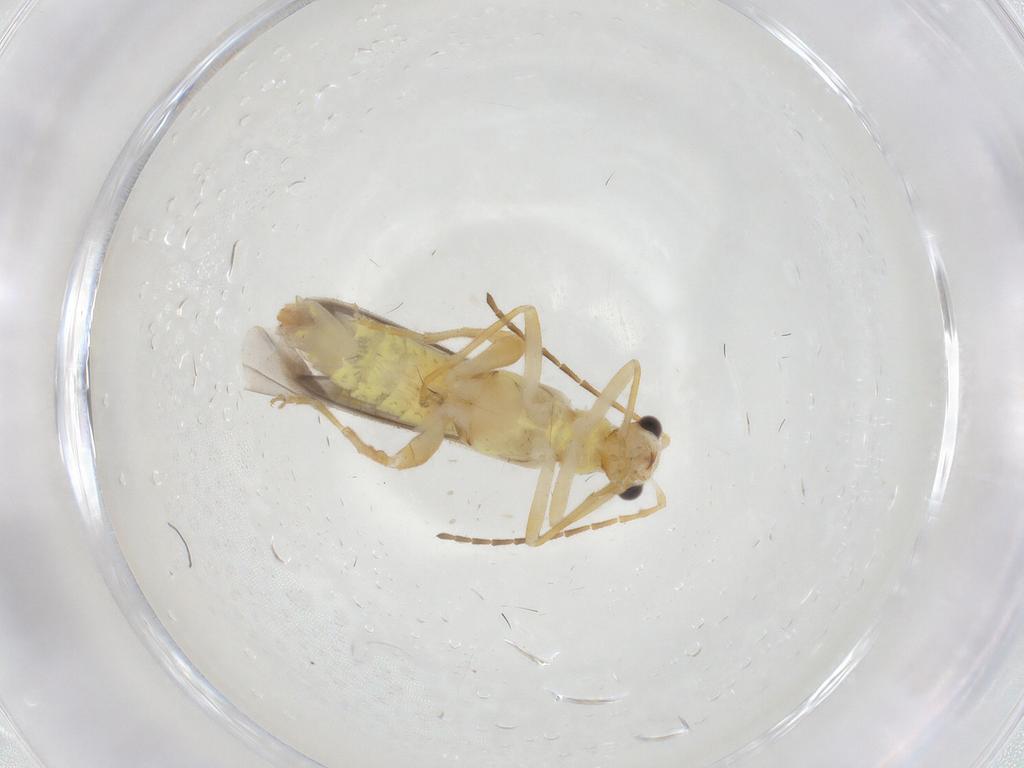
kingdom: Animalia
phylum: Arthropoda
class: Insecta
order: Coleoptera
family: Cantharidae
